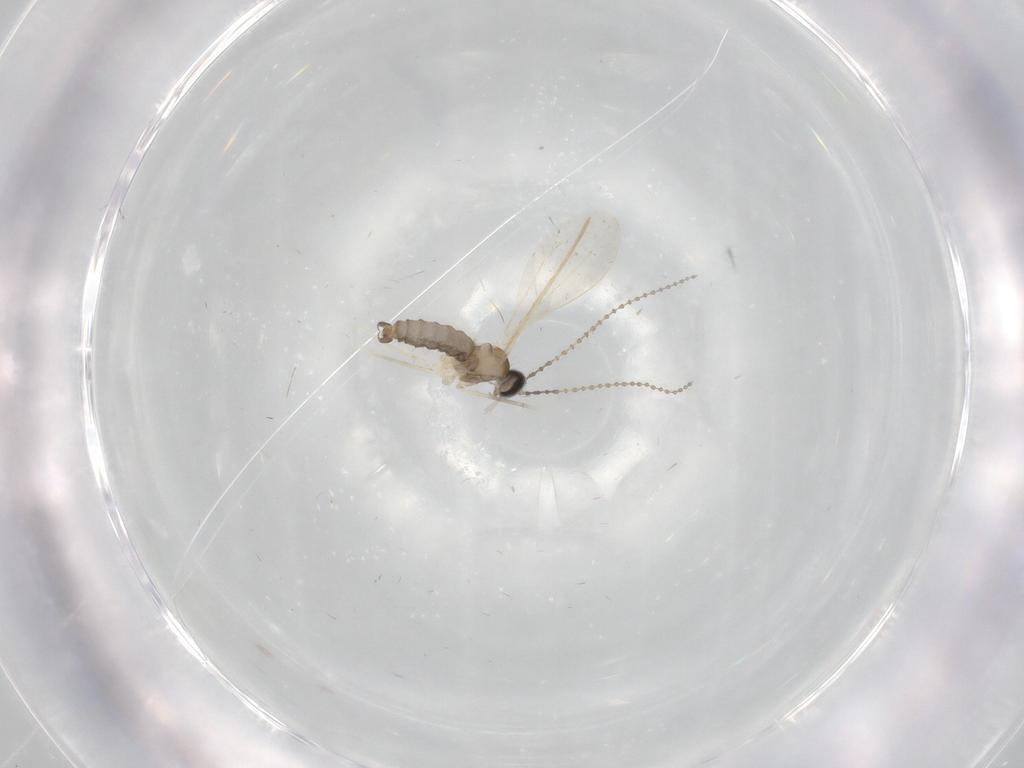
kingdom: Animalia
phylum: Arthropoda
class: Insecta
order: Diptera
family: Cecidomyiidae
